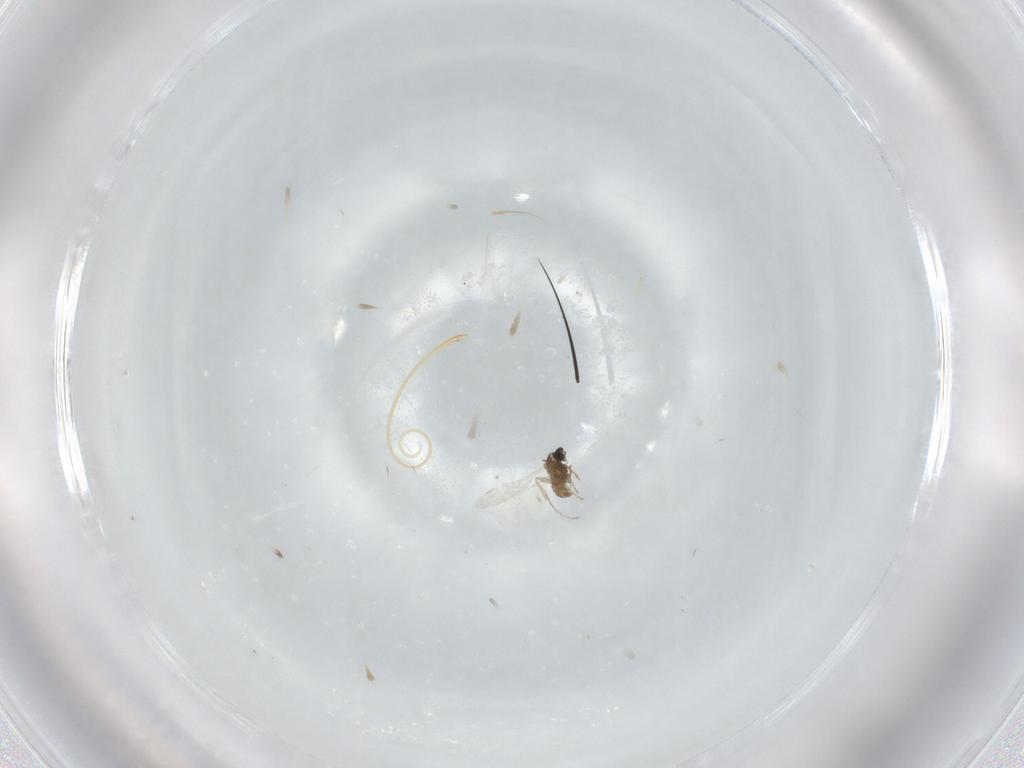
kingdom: Animalia
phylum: Arthropoda
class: Insecta
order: Diptera
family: Cecidomyiidae
